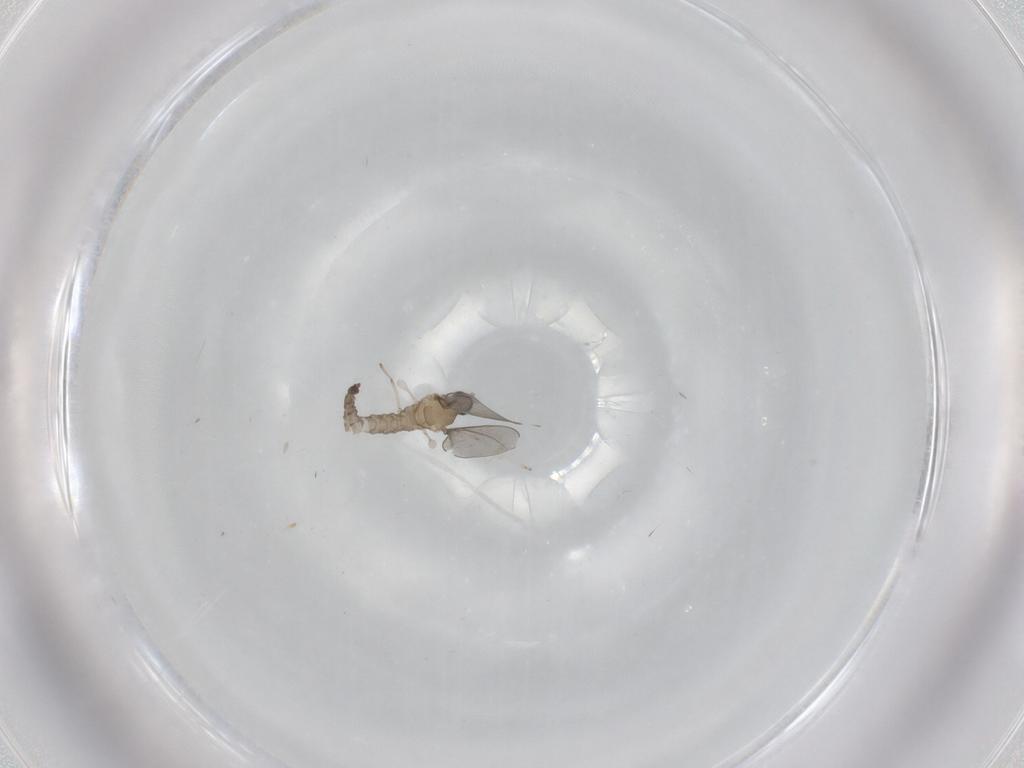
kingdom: Animalia
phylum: Arthropoda
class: Insecta
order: Diptera
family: Cecidomyiidae
